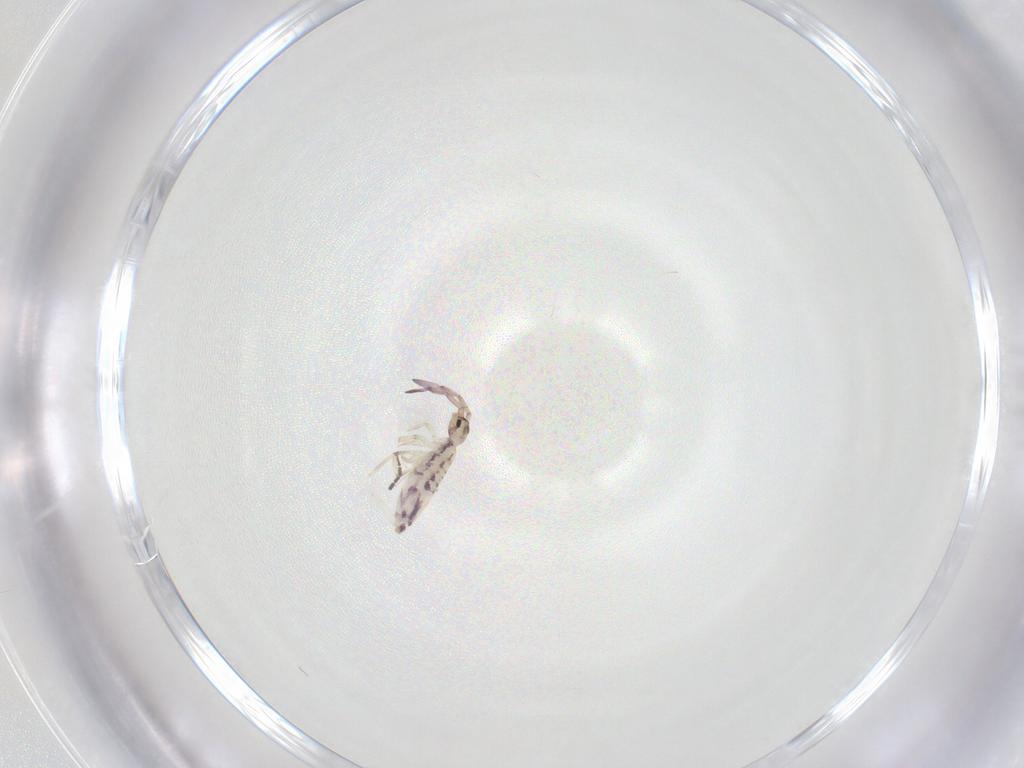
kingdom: Animalia
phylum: Arthropoda
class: Collembola
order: Entomobryomorpha
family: Entomobryidae
